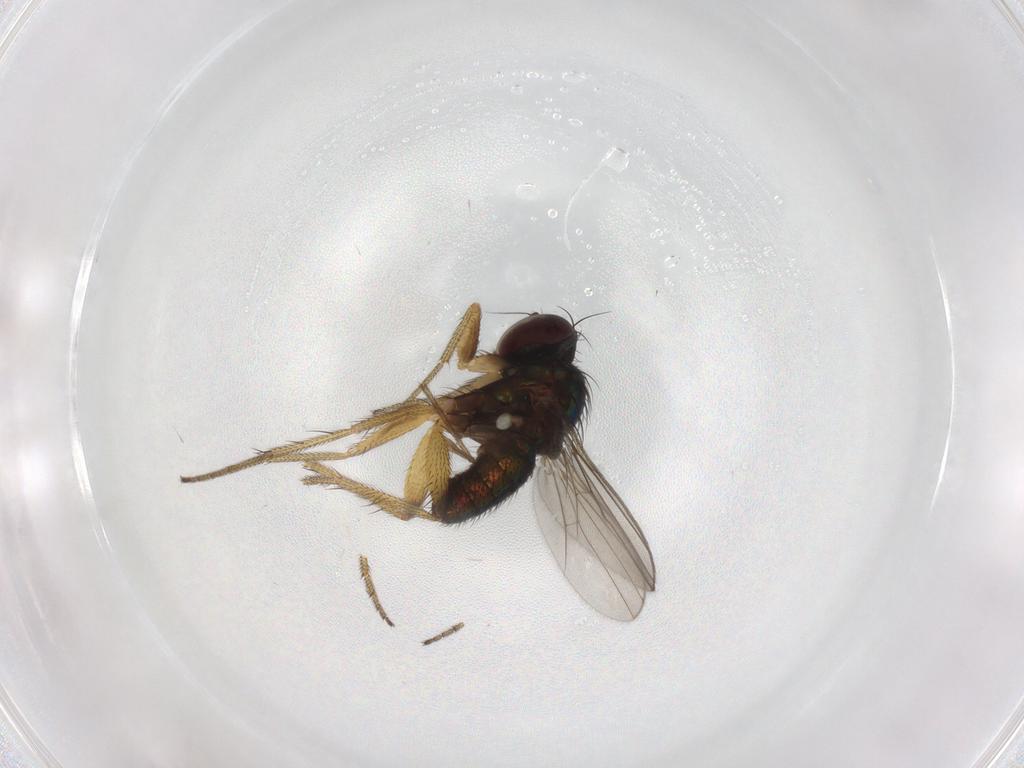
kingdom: Animalia
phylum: Arthropoda
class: Insecta
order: Diptera
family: Chironomidae
